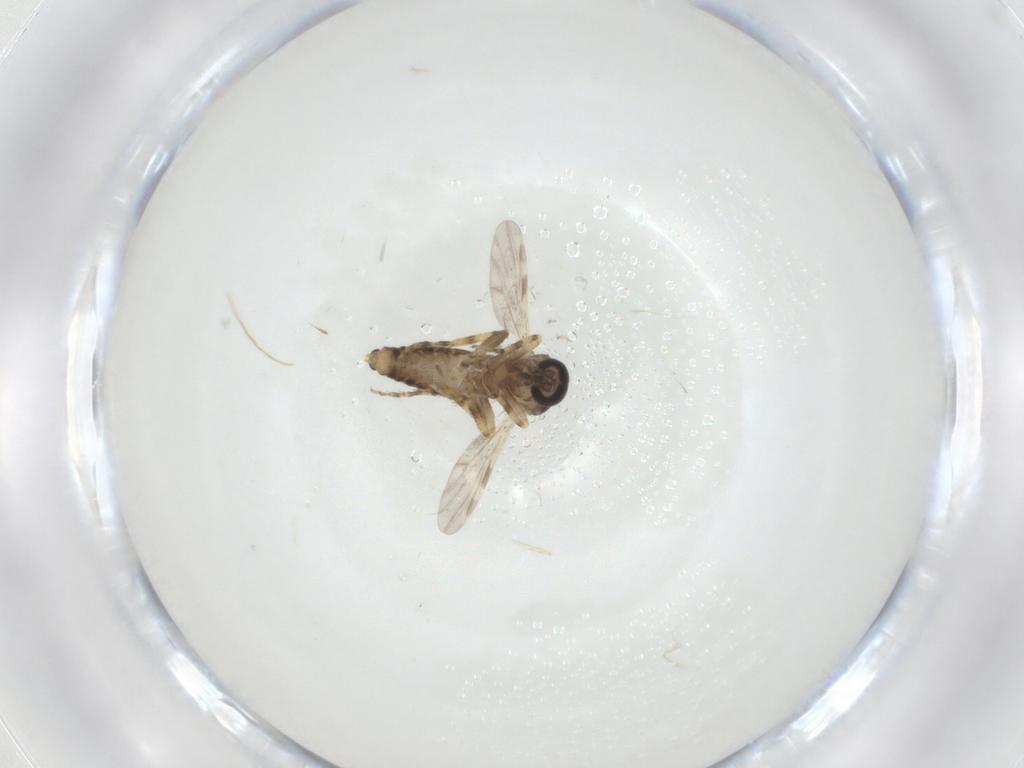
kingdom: Animalia
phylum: Arthropoda
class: Insecta
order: Diptera
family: Ceratopogonidae
